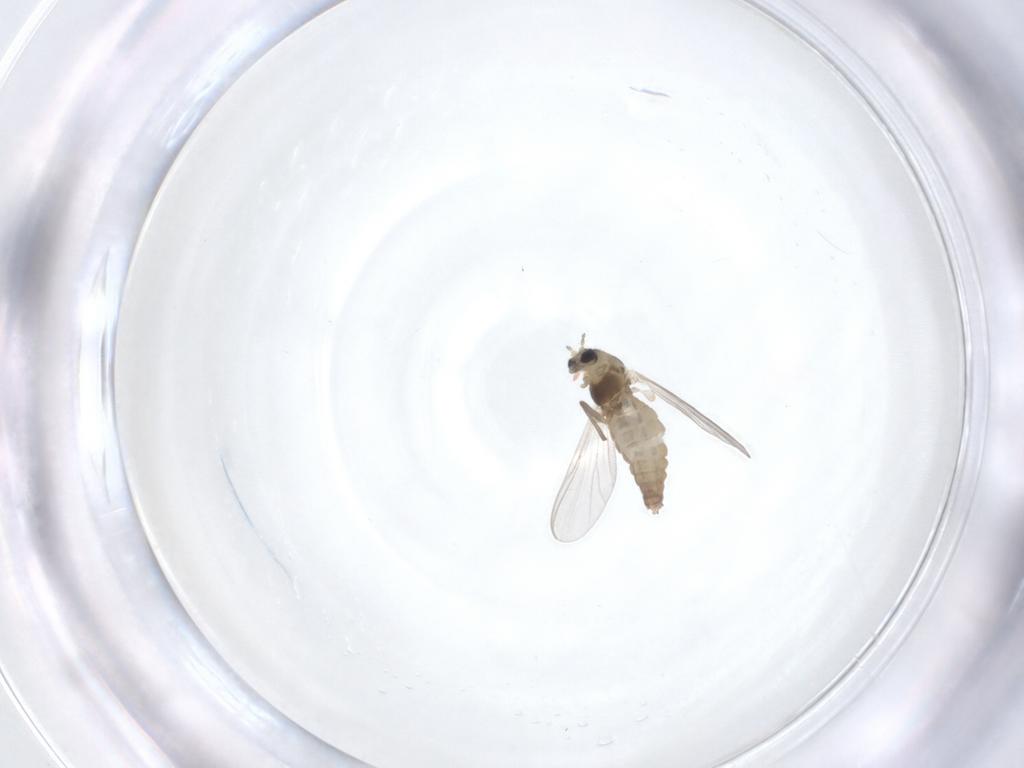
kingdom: Animalia
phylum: Arthropoda
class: Insecta
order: Diptera
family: Chironomidae
